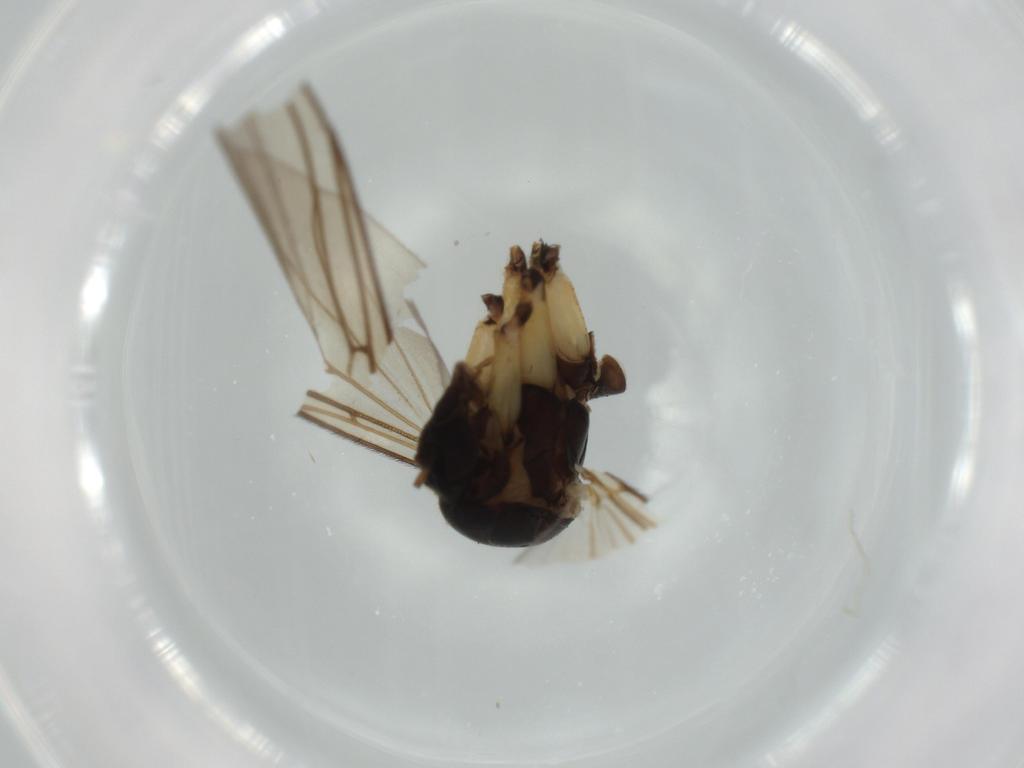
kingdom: Animalia
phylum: Arthropoda
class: Insecta
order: Diptera
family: Mycetophilidae
